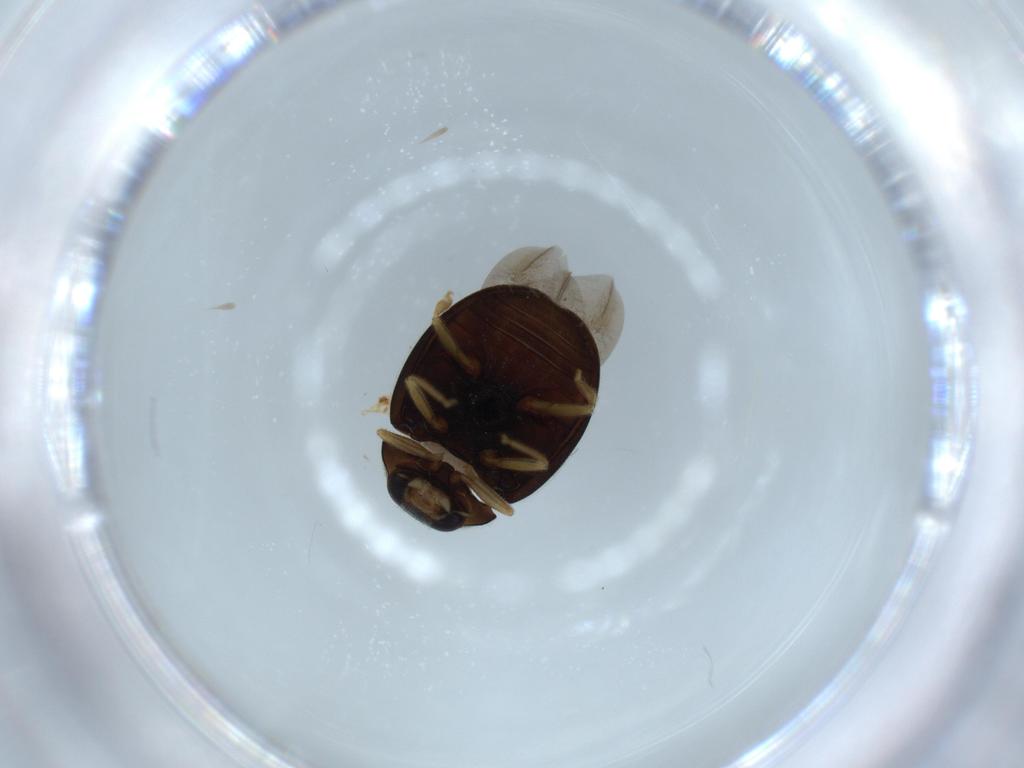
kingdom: Animalia
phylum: Arthropoda
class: Insecta
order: Coleoptera
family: Coccinellidae
